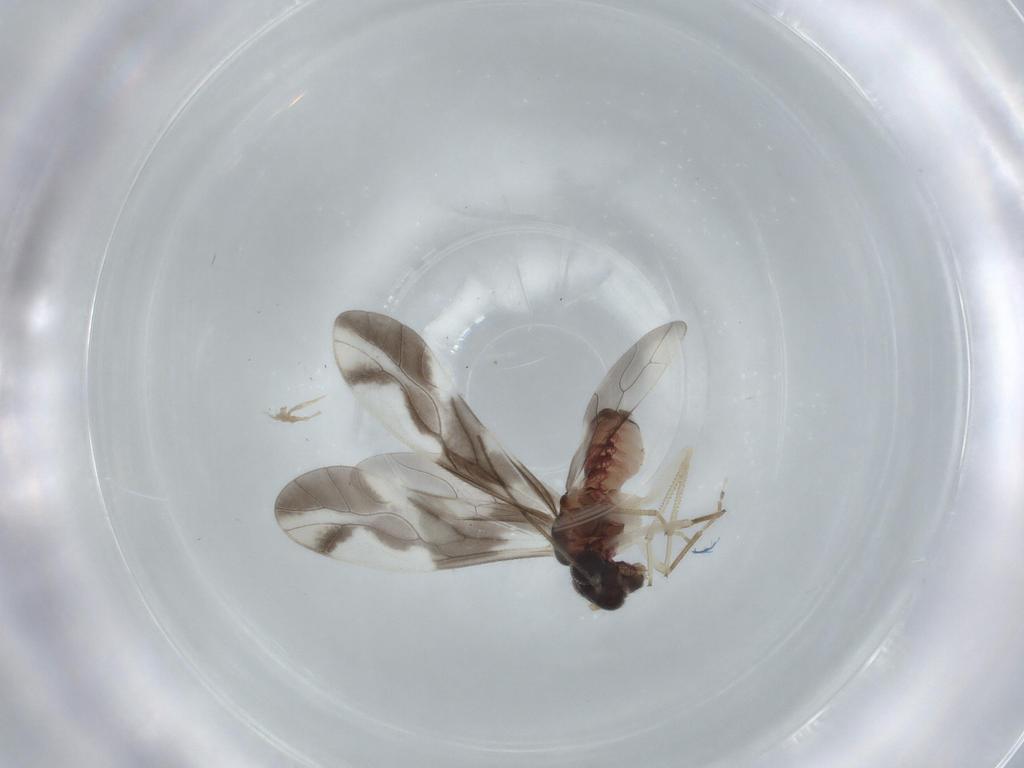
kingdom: Animalia
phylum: Arthropoda
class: Insecta
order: Psocodea
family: Caeciliusidae
